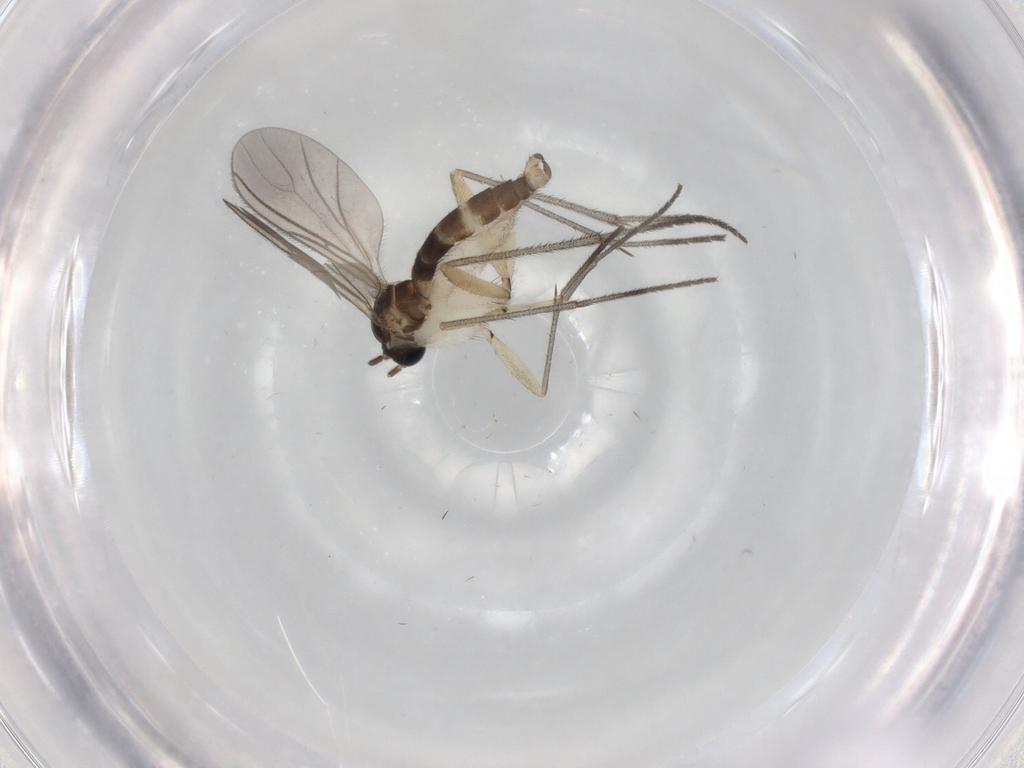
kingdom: Animalia
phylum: Arthropoda
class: Insecta
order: Diptera
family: Sciaridae
